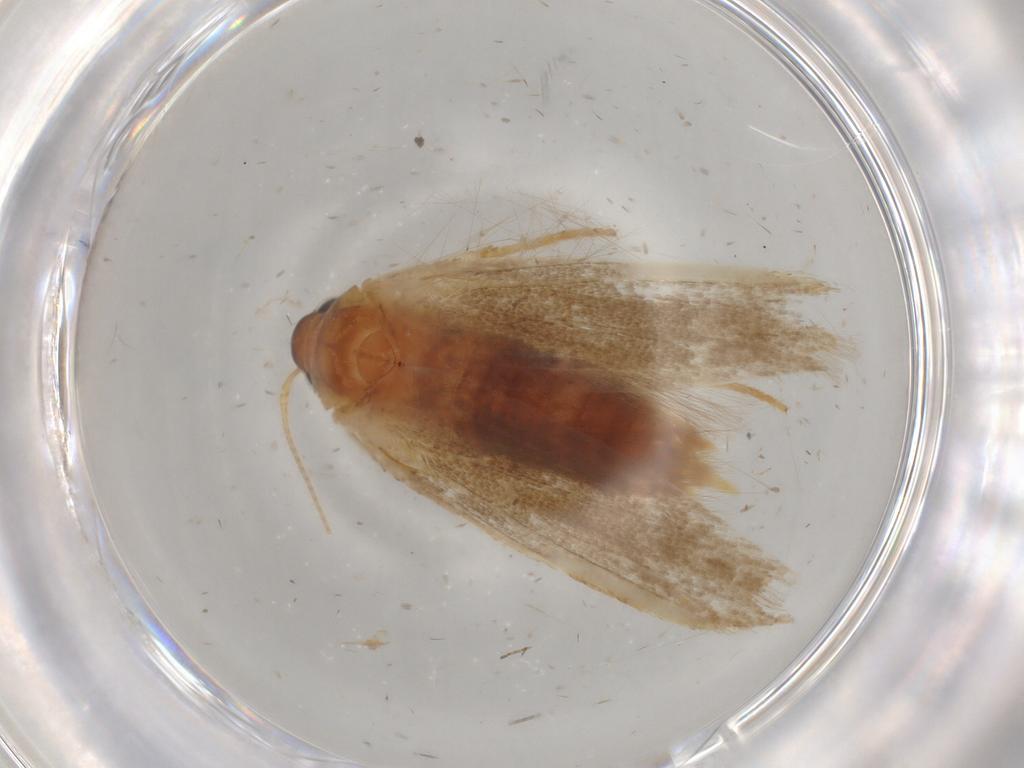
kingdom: Animalia
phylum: Arthropoda
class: Insecta
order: Lepidoptera
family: Blastobasidae
